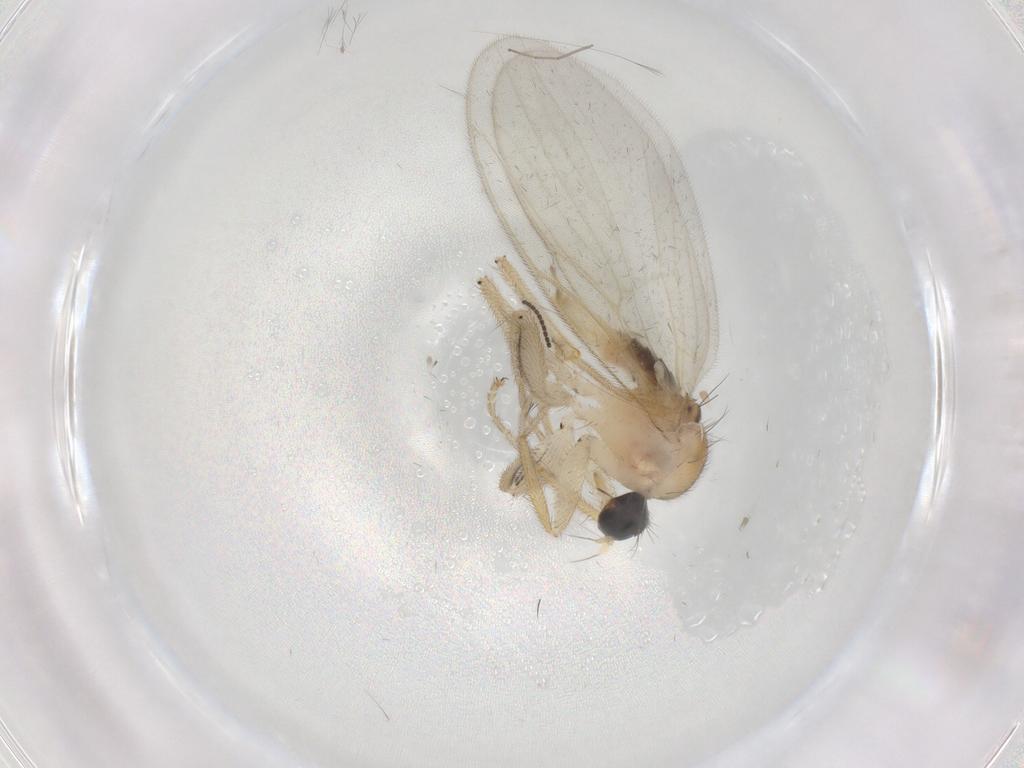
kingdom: Animalia
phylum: Arthropoda
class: Insecta
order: Diptera
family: Hybotidae
